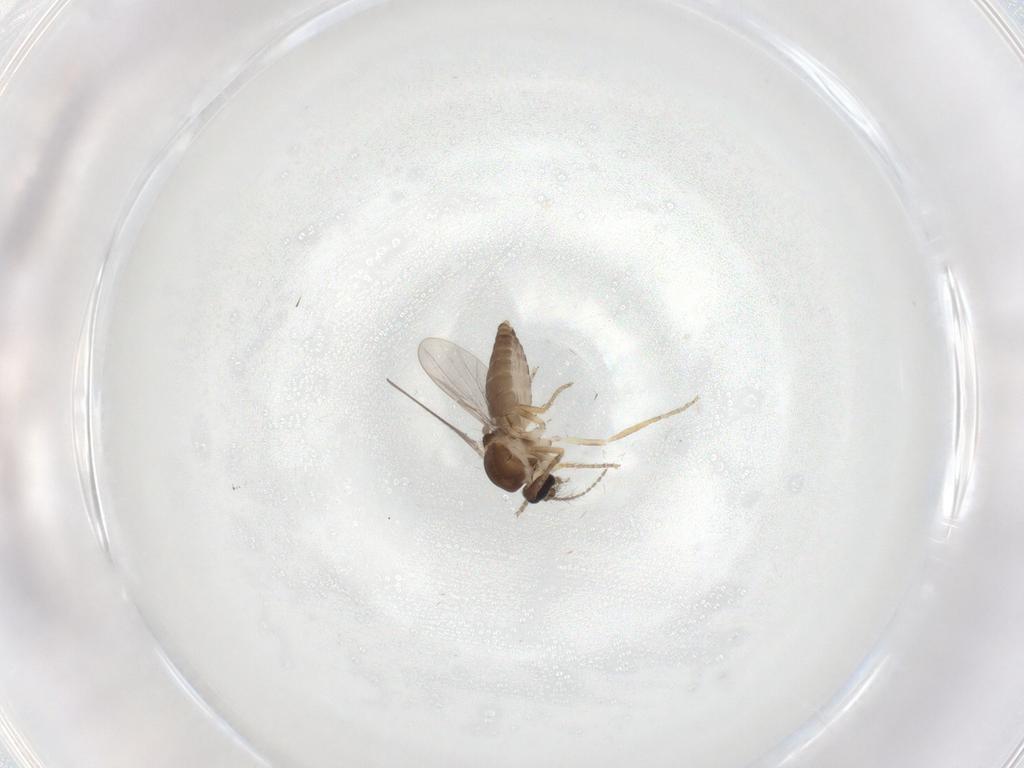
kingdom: Animalia
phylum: Arthropoda
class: Insecta
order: Diptera
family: Ceratopogonidae
